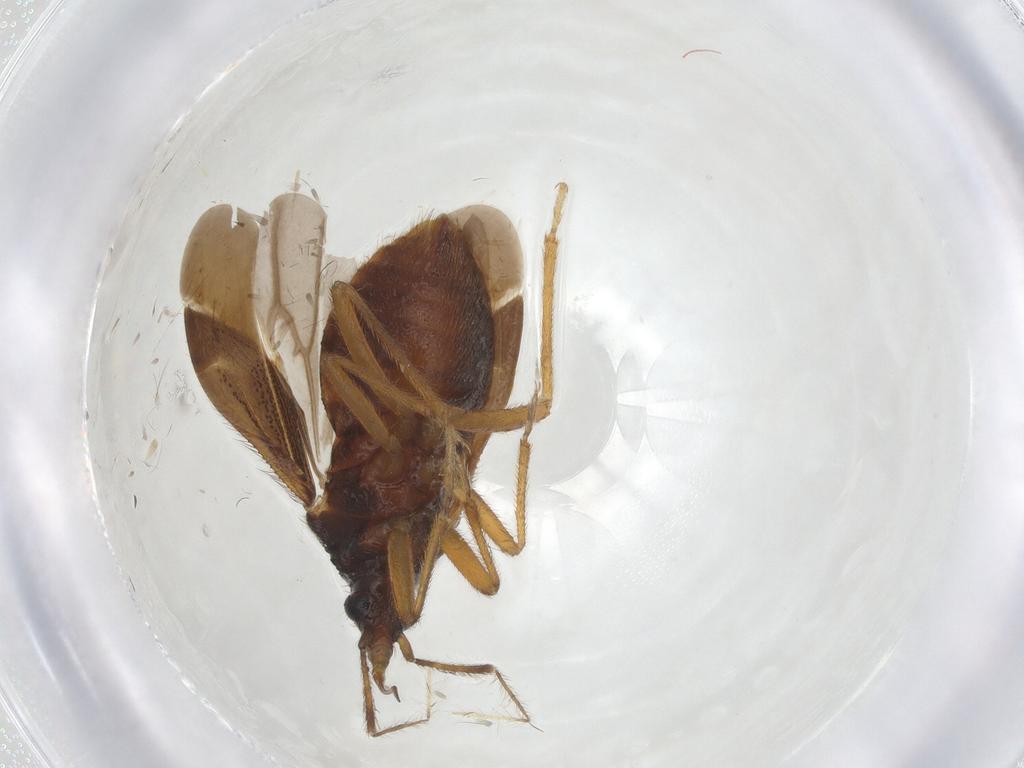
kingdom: Animalia
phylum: Arthropoda
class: Insecta
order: Hemiptera
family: Anthocoridae
